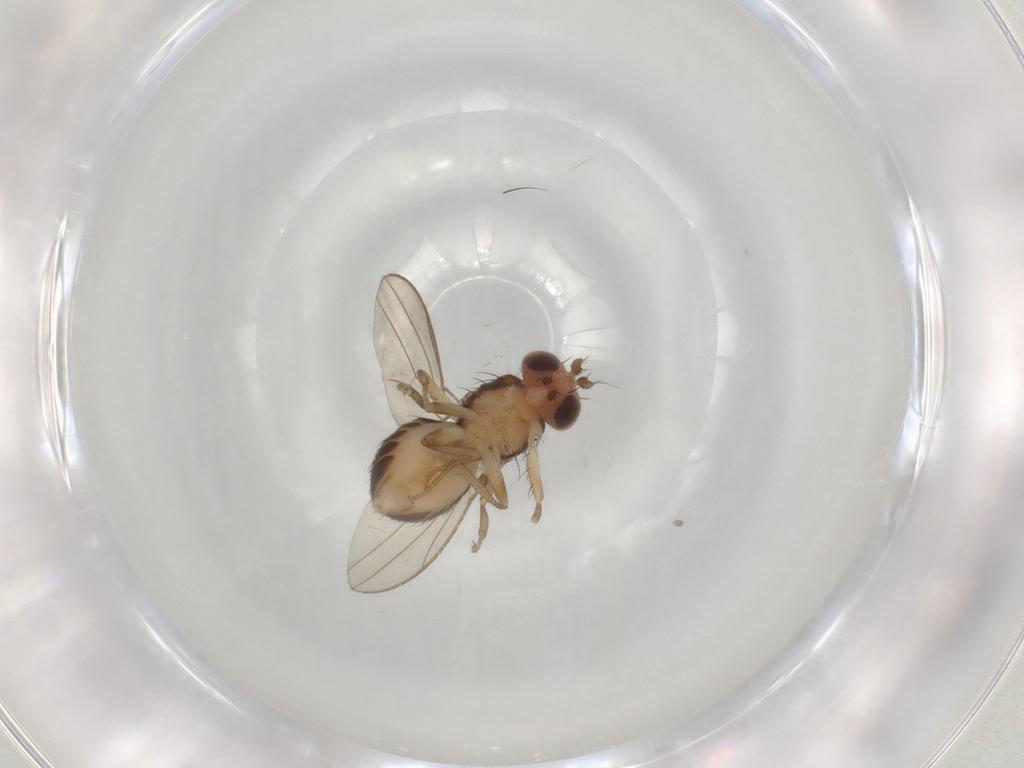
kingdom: Animalia
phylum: Arthropoda
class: Insecta
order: Diptera
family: Drosophilidae
